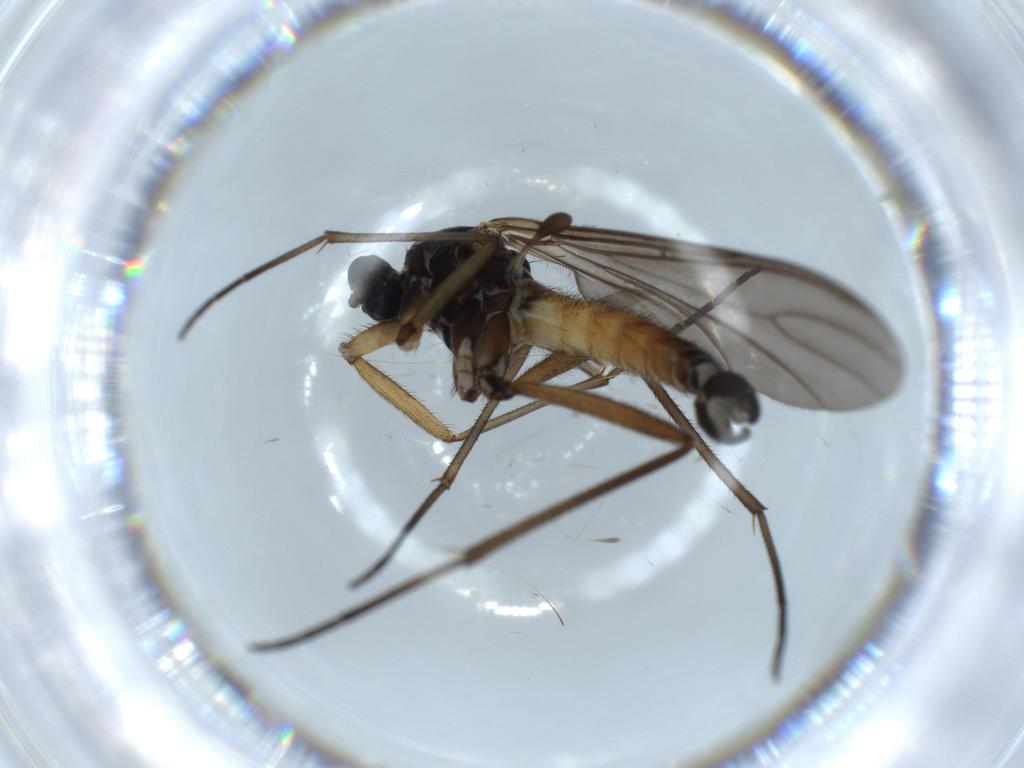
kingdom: Animalia
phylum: Arthropoda
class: Insecta
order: Diptera
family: Sciaridae
